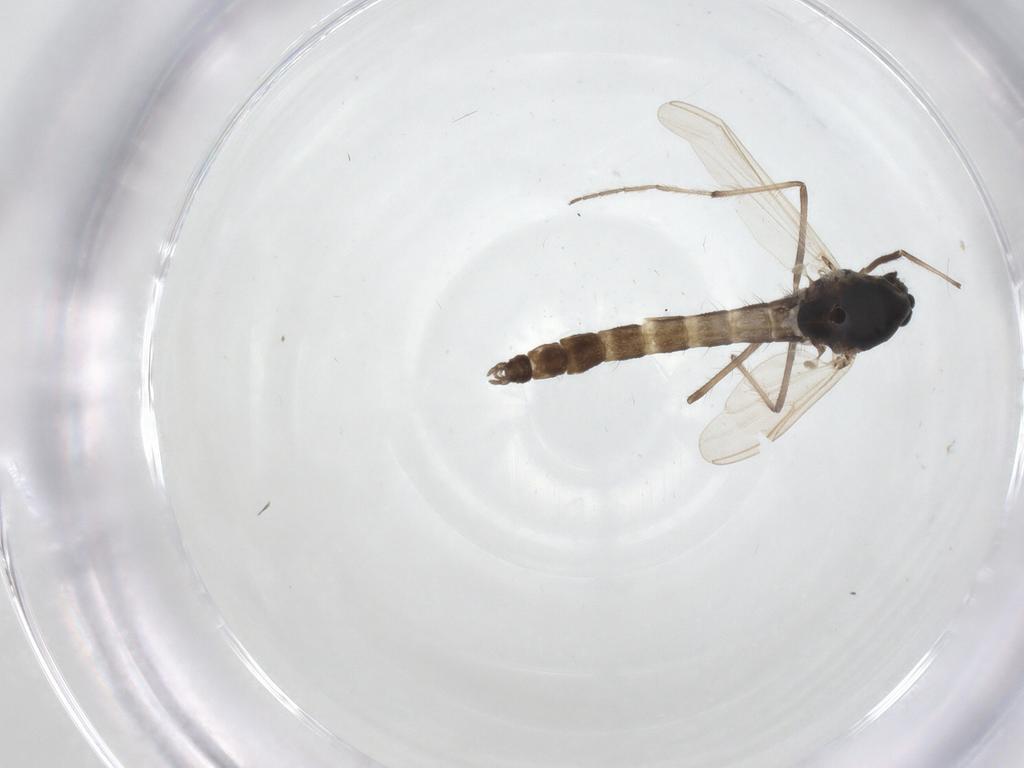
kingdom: Animalia
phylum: Arthropoda
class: Insecta
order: Diptera
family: Chironomidae
